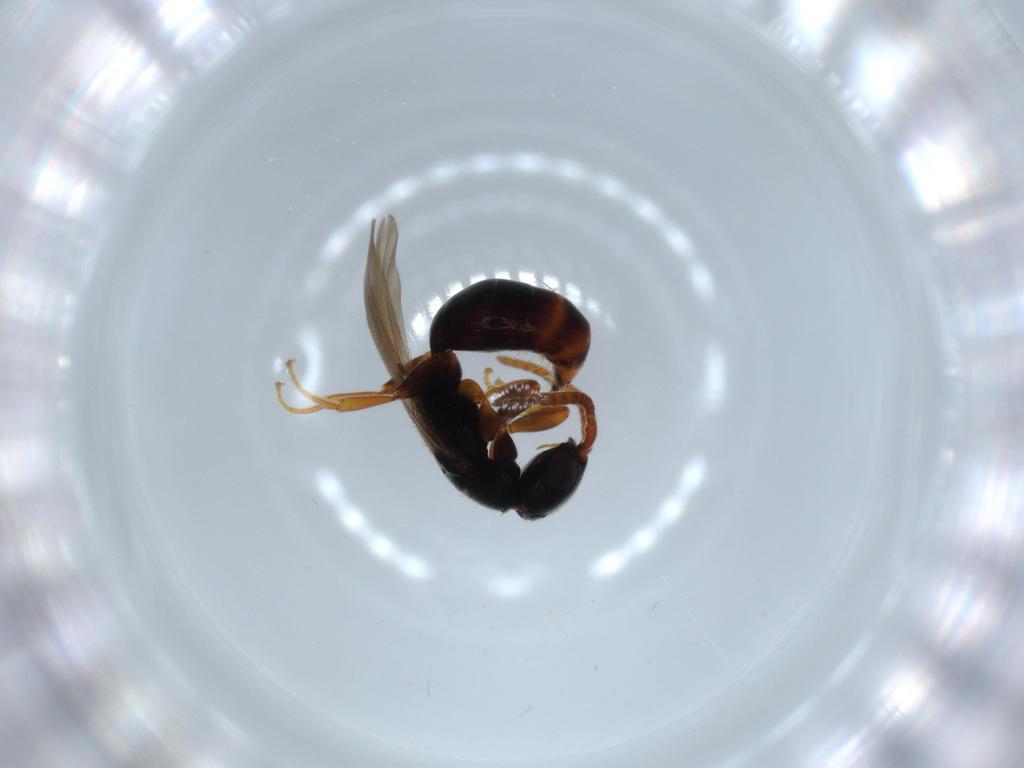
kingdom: Animalia
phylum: Arthropoda
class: Insecta
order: Hymenoptera
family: Bethylidae
